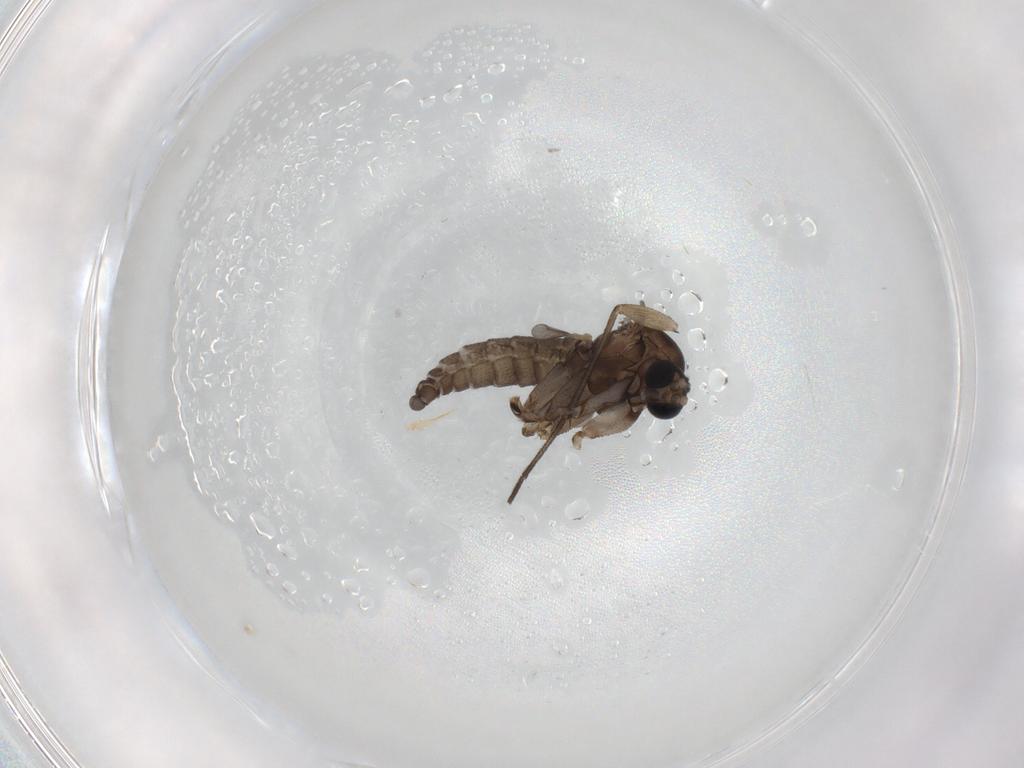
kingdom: Animalia
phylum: Arthropoda
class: Insecta
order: Diptera
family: Sciaridae
